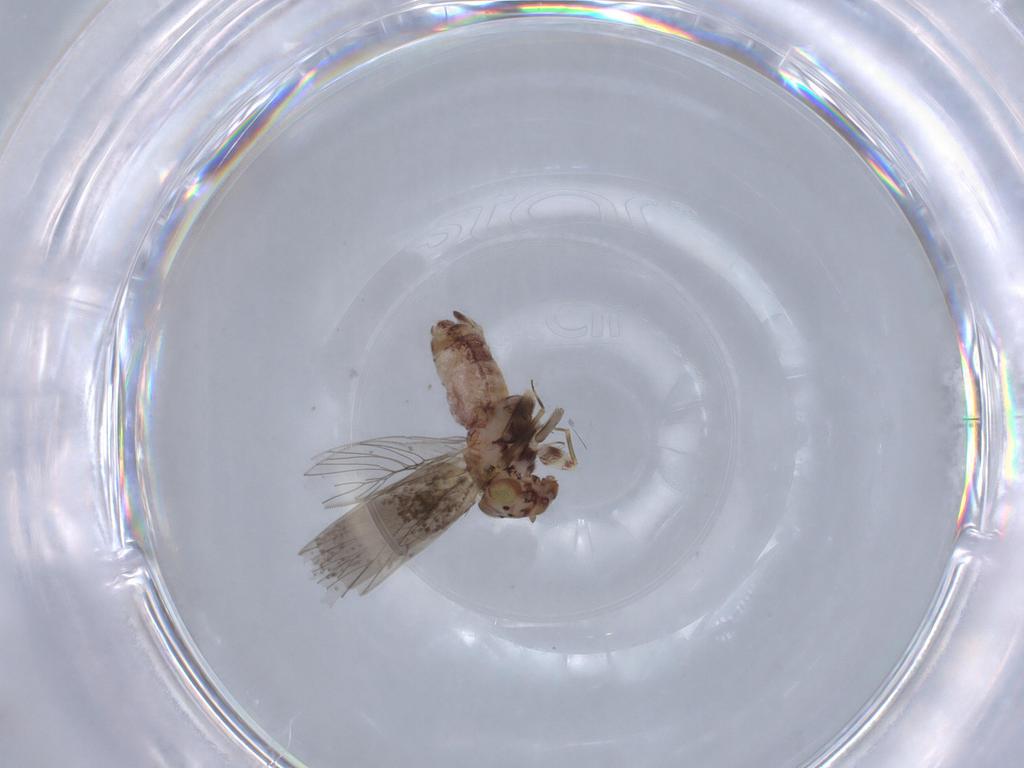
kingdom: Animalia
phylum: Arthropoda
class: Insecta
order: Psocodea
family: Lepidopsocidae
